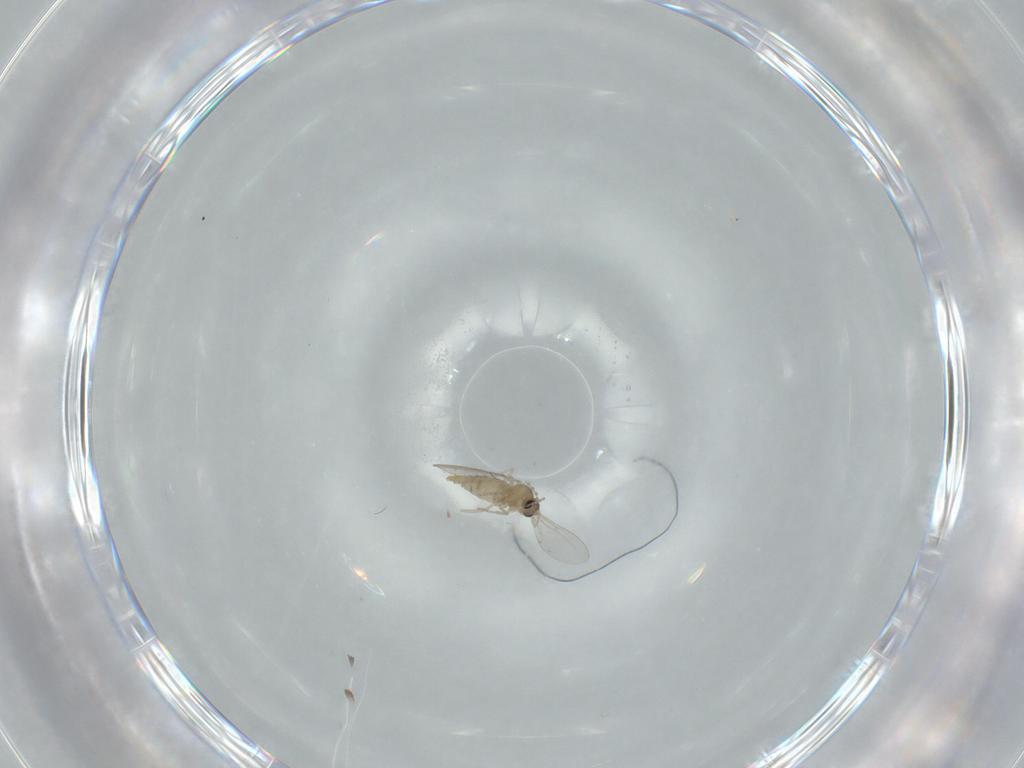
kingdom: Animalia
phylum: Arthropoda
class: Insecta
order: Diptera
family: Cecidomyiidae
